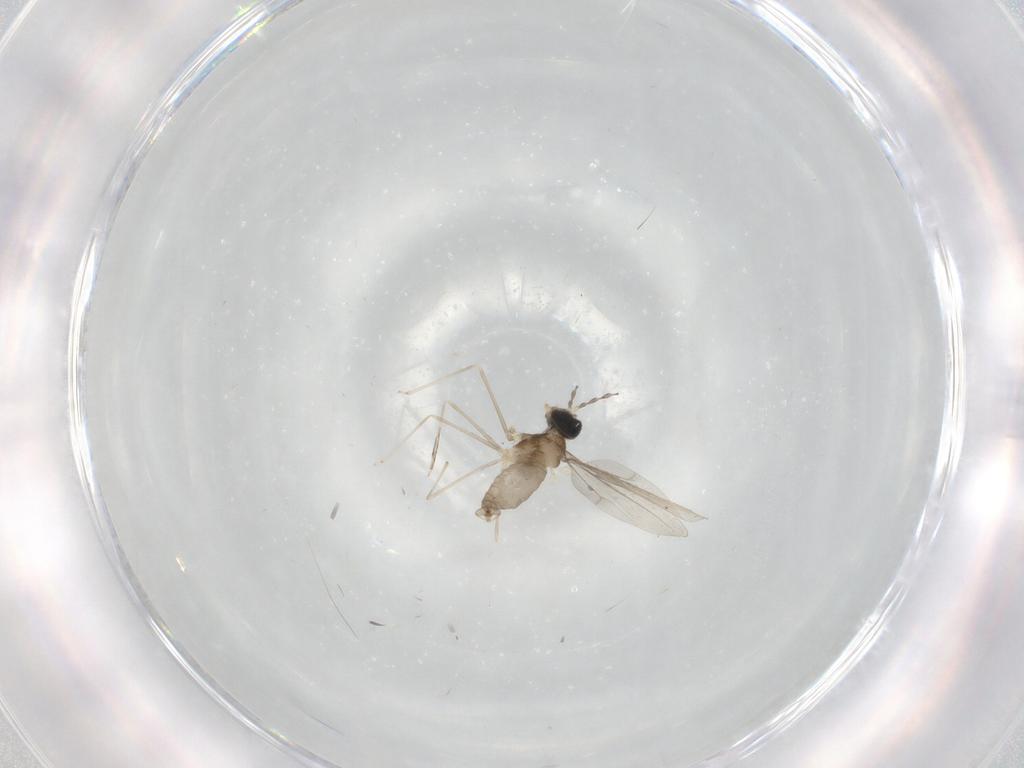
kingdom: Animalia
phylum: Arthropoda
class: Insecta
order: Diptera
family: Cecidomyiidae
